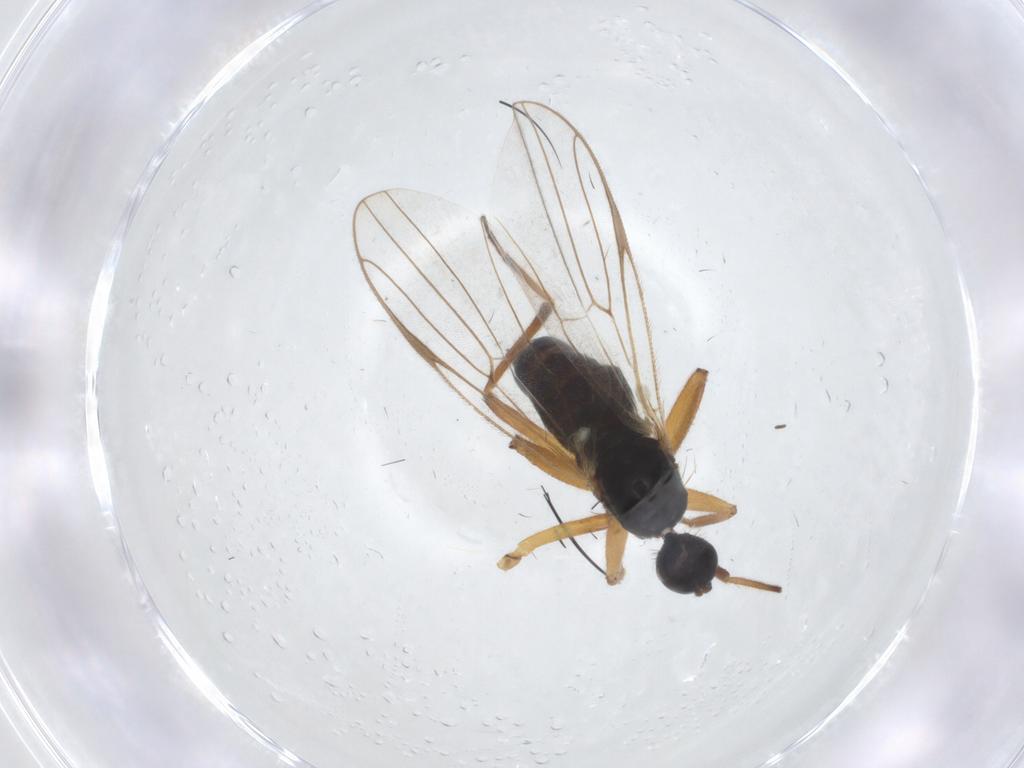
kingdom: Animalia
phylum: Arthropoda
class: Insecta
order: Diptera
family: Hybotidae
